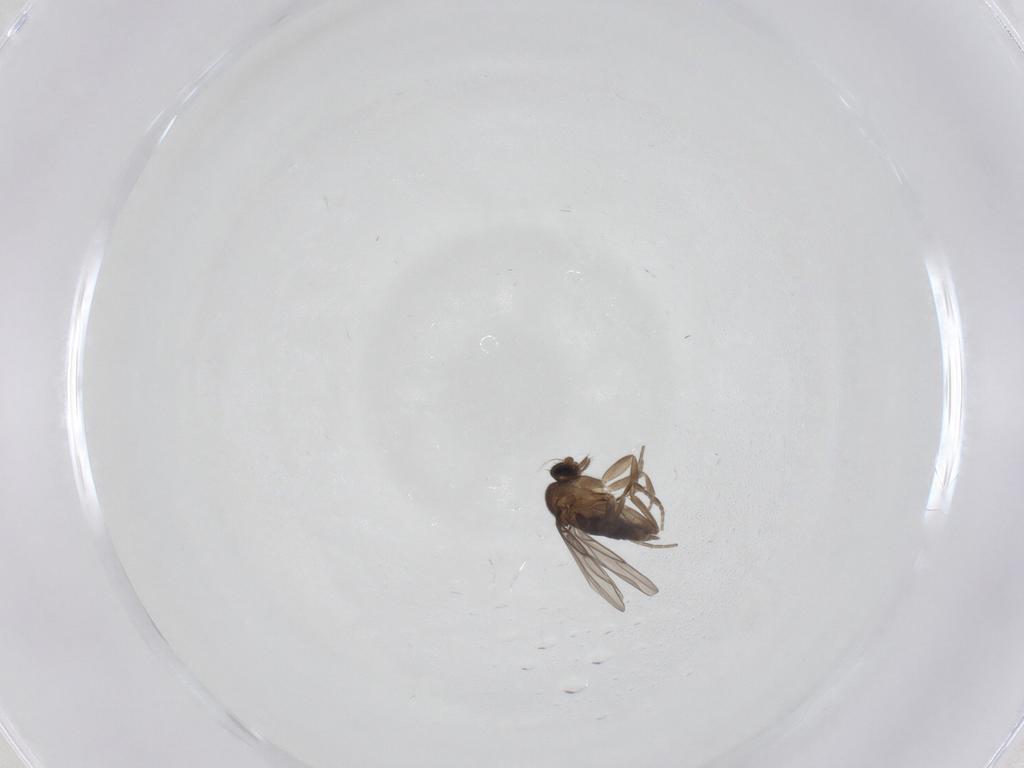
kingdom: Animalia
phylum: Arthropoda
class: Insecta
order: Diptera
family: Phoridae
